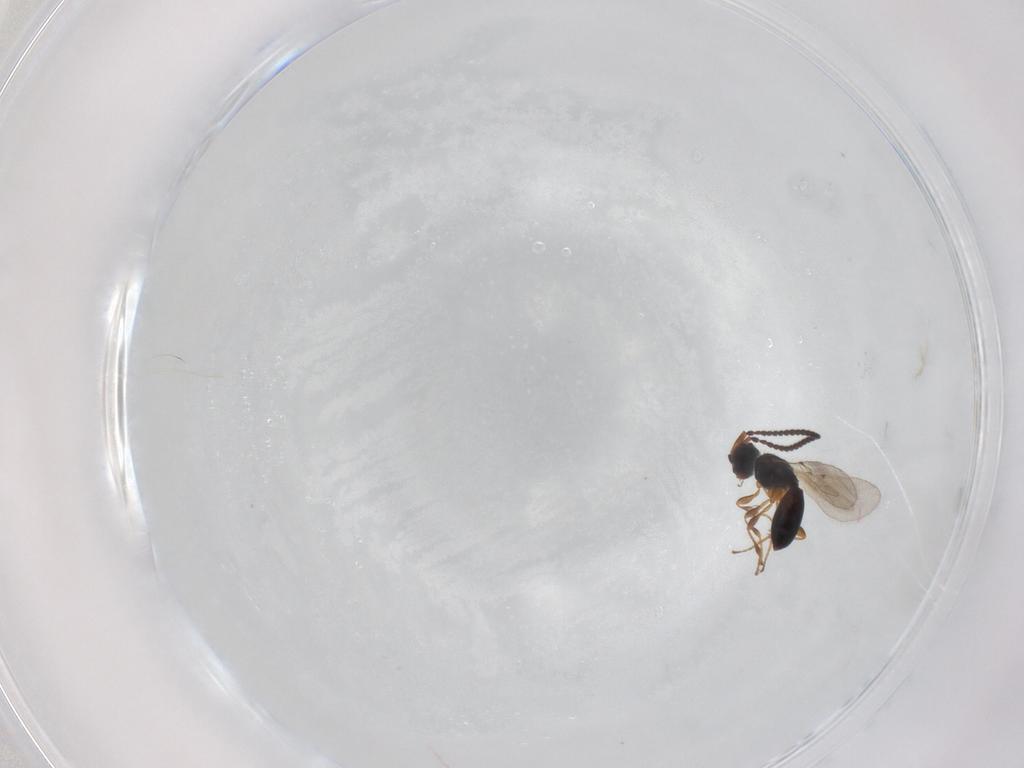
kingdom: Animalia
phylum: Arthropoda
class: Insecta
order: Hymenoptera
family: Diapriidae
